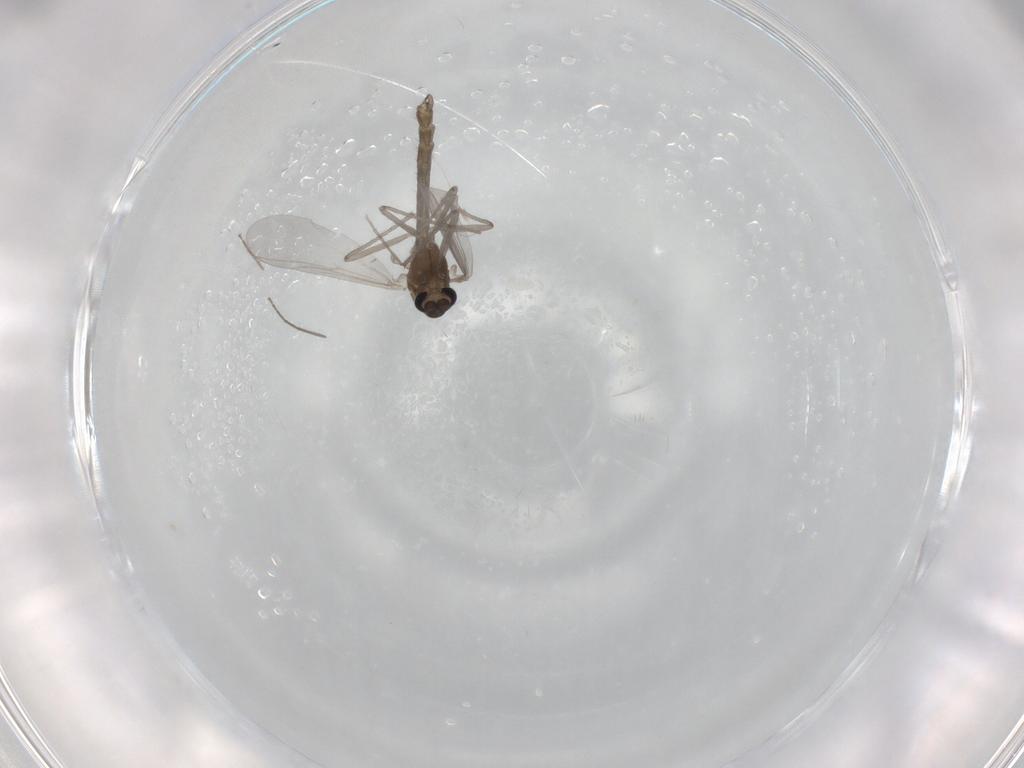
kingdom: Animalia
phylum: Arthropoda
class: Insecta
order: Diptera
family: Chironomidae
